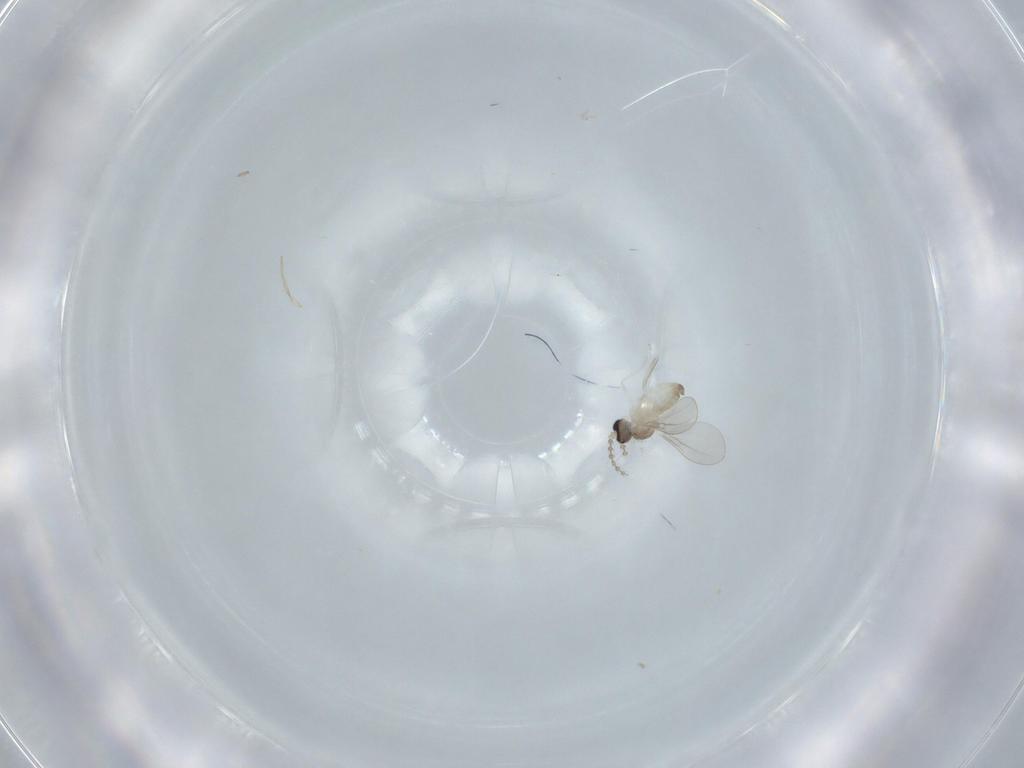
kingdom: Animalia
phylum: Arthropoda
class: Insecta
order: Diptera
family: Cecidomyiidae
